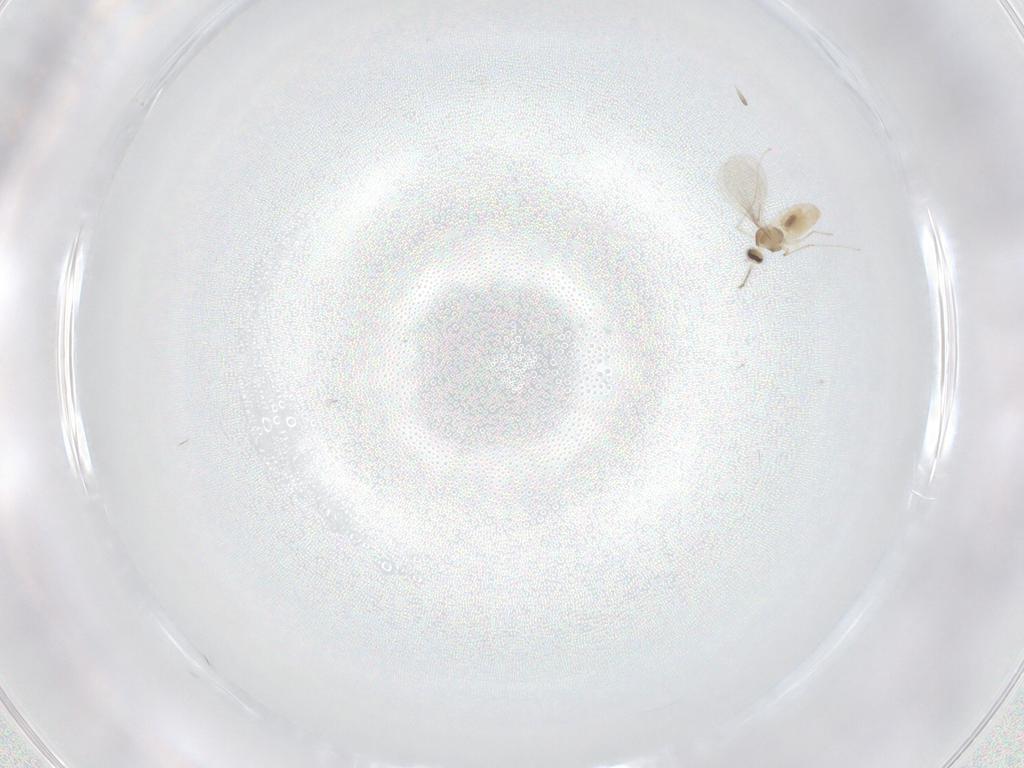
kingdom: Animalia
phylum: Arthropoda
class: Insecta
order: Diptera
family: Cecidomyiidae
